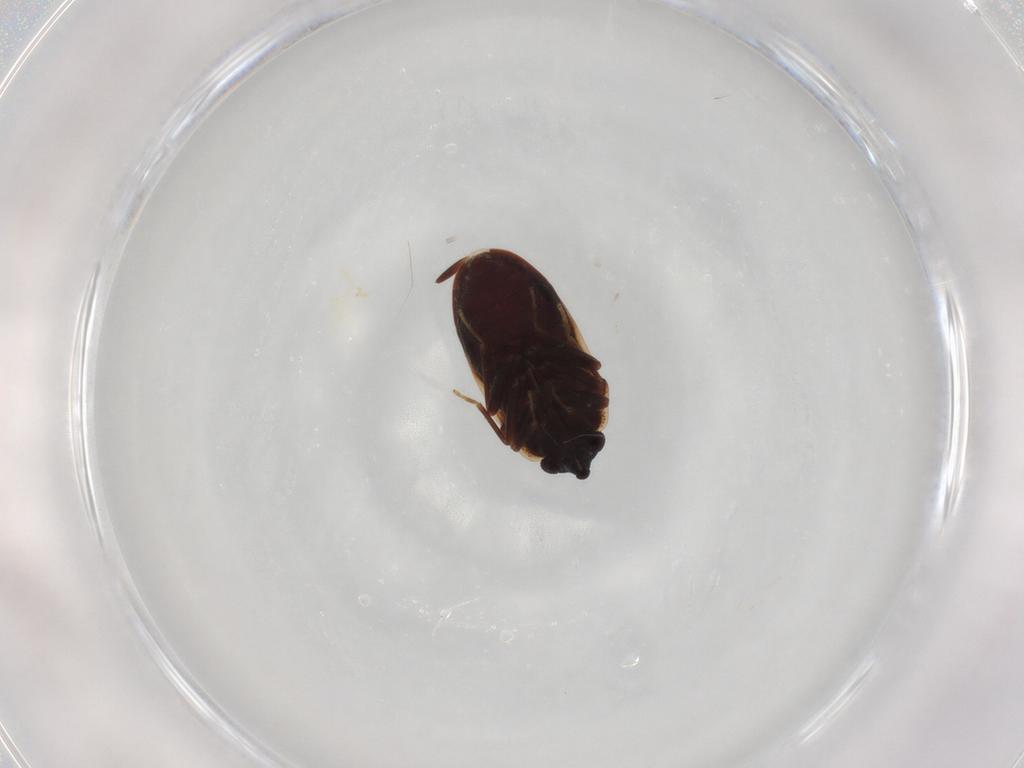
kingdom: Animalia
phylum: Arthropoda
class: Insecta
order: Hemiptera
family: Rhyparochromidae
